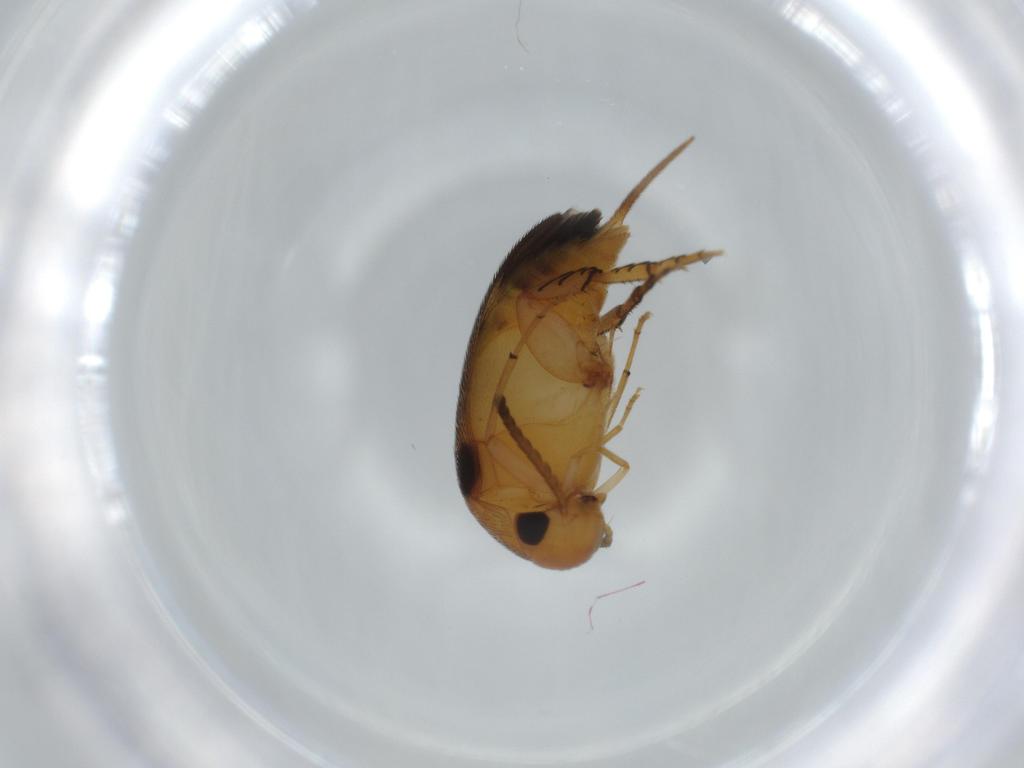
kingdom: Animalia
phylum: Arthropoda
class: Insecta
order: Coleoptera
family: Mordellidae
